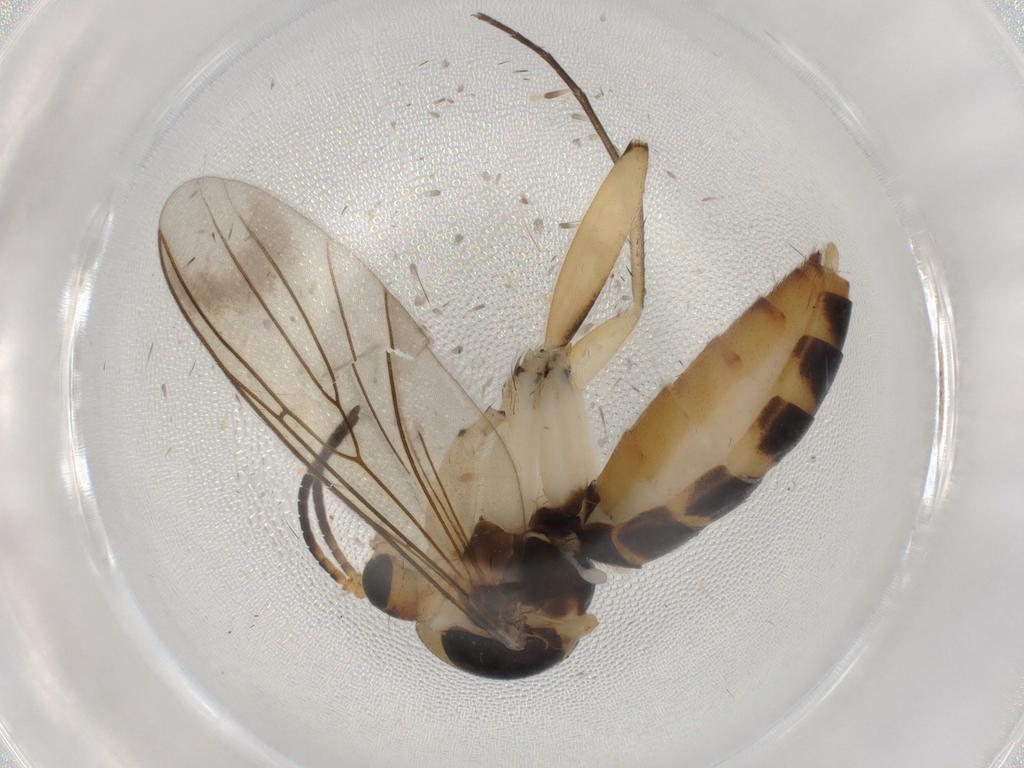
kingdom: Animalia
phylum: Arthropoda
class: Insecta
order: Diptera
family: Mycetophilidae
